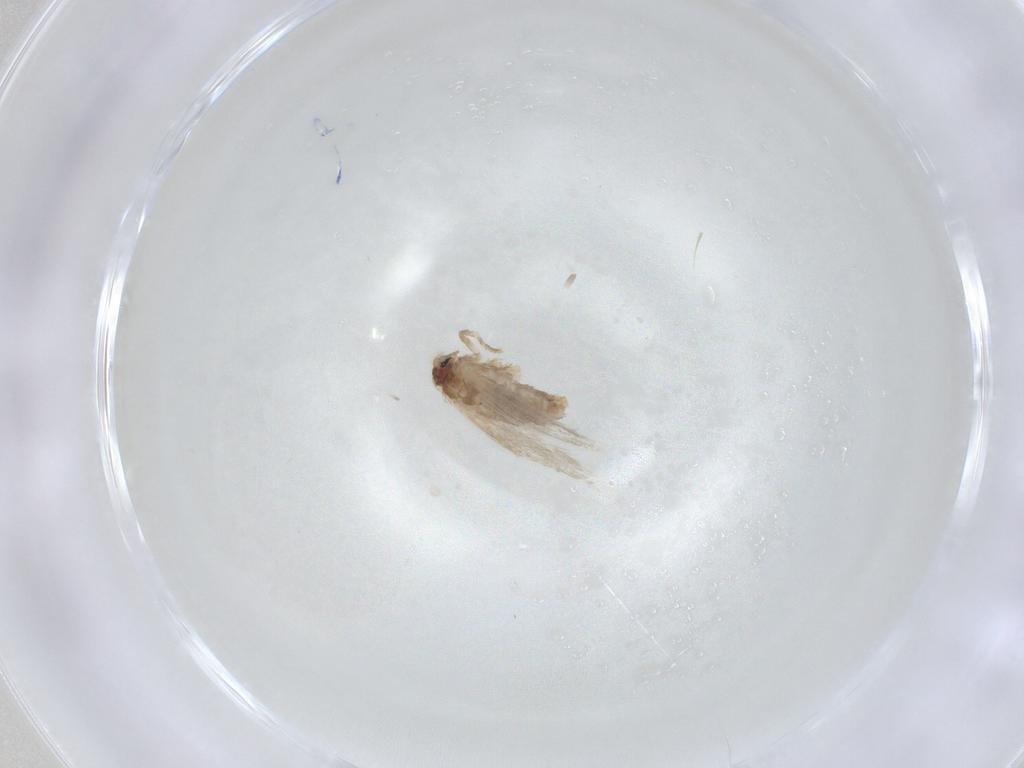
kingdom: Animalia
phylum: Arthropoda
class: Insecta
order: Lepidoptera
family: Nepticulidae
